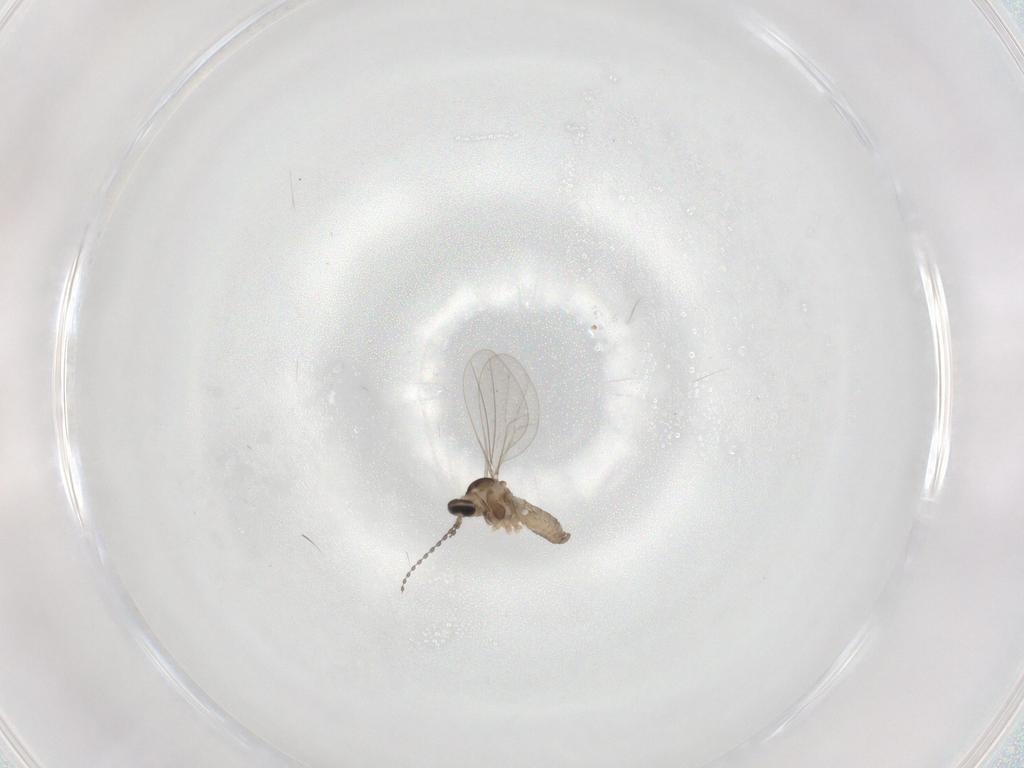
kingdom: Animalia
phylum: Arthropoda
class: Insecta
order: Diptera
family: Cecidomyiidae
